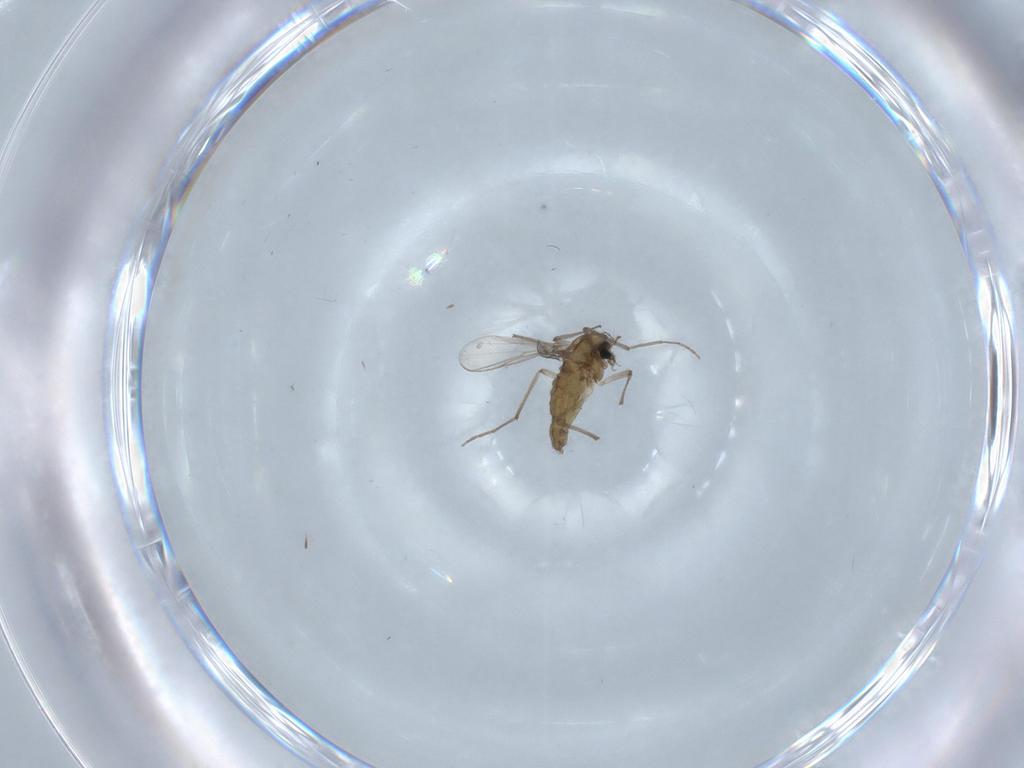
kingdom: Animalia
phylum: Arthropoda
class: Insecta
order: Diptera
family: Chironomidae
